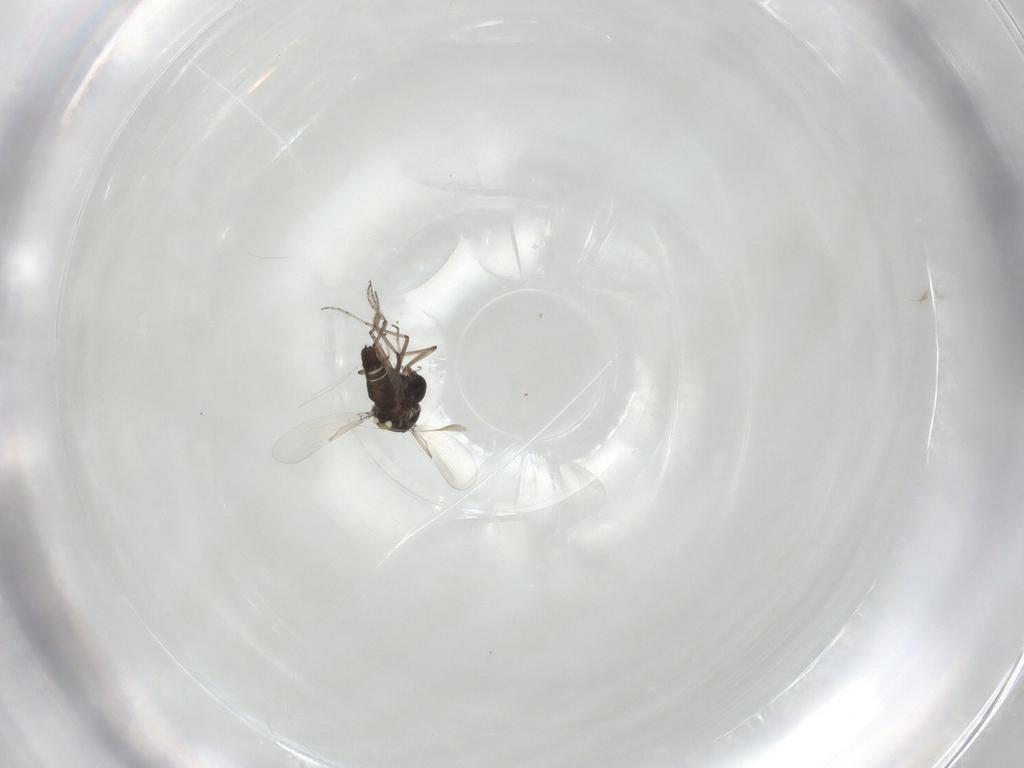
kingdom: Animalia
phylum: Arthropoda
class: Insecta
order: Diptera
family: Ceratopogonidae
